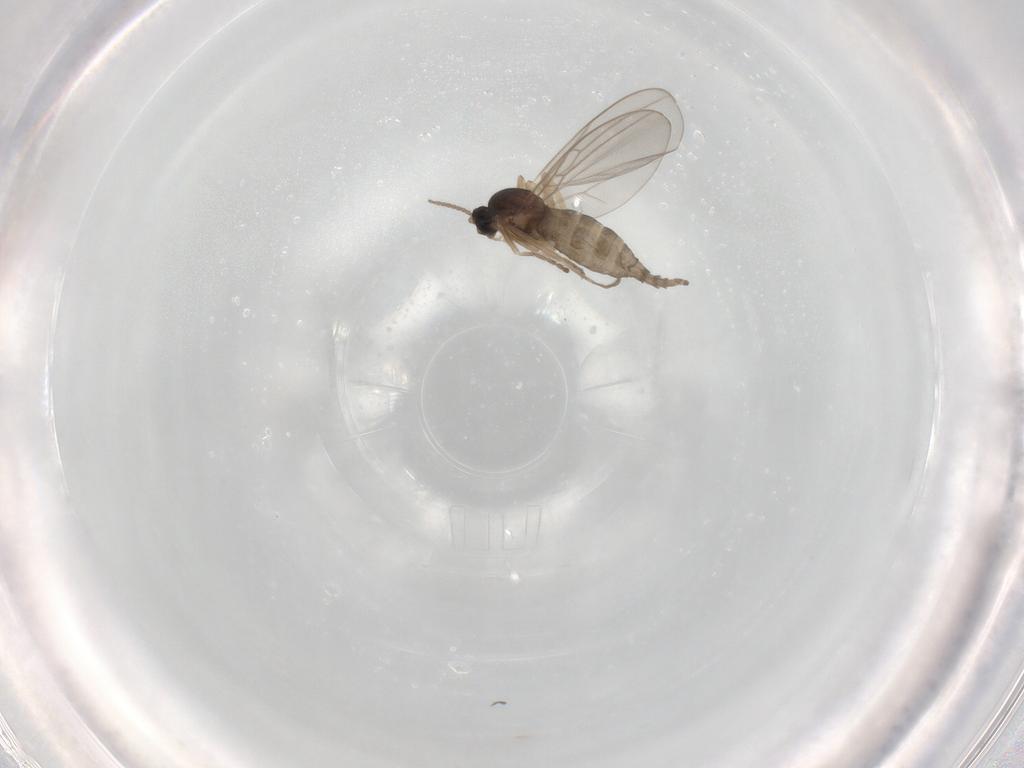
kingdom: Animalia
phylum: Arthropoda
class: Insecta
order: Diptera
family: Cecidomyiidae
